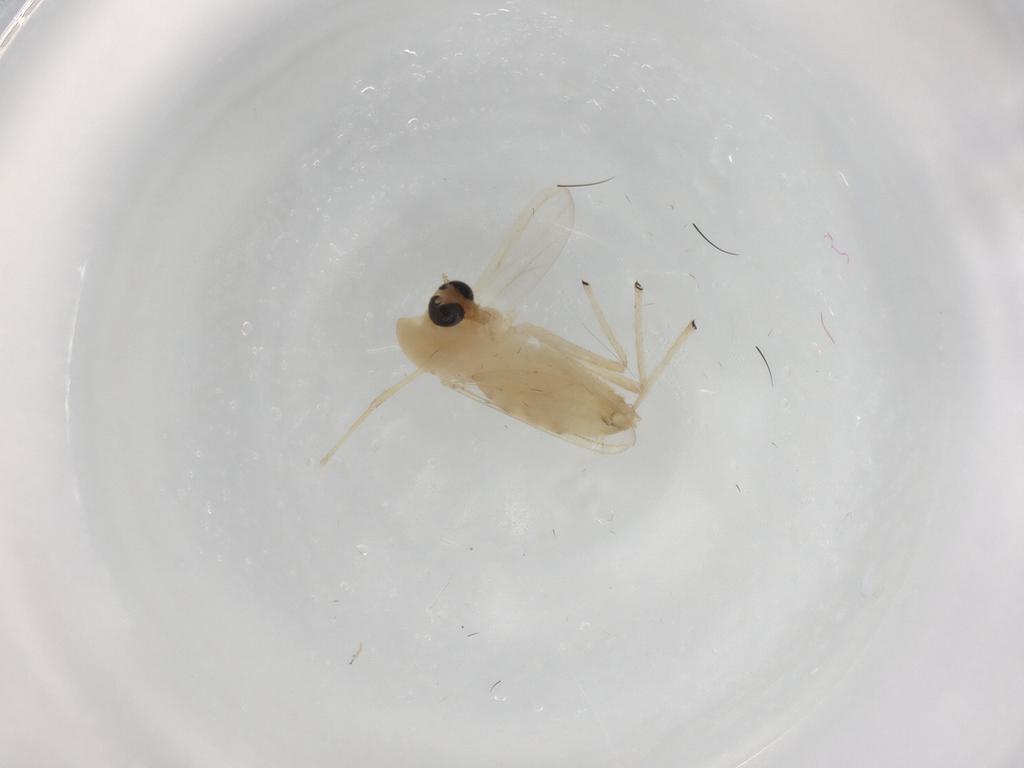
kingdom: Animalia
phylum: Arthropoda
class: Insecta
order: Diptera
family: Chironomidae
